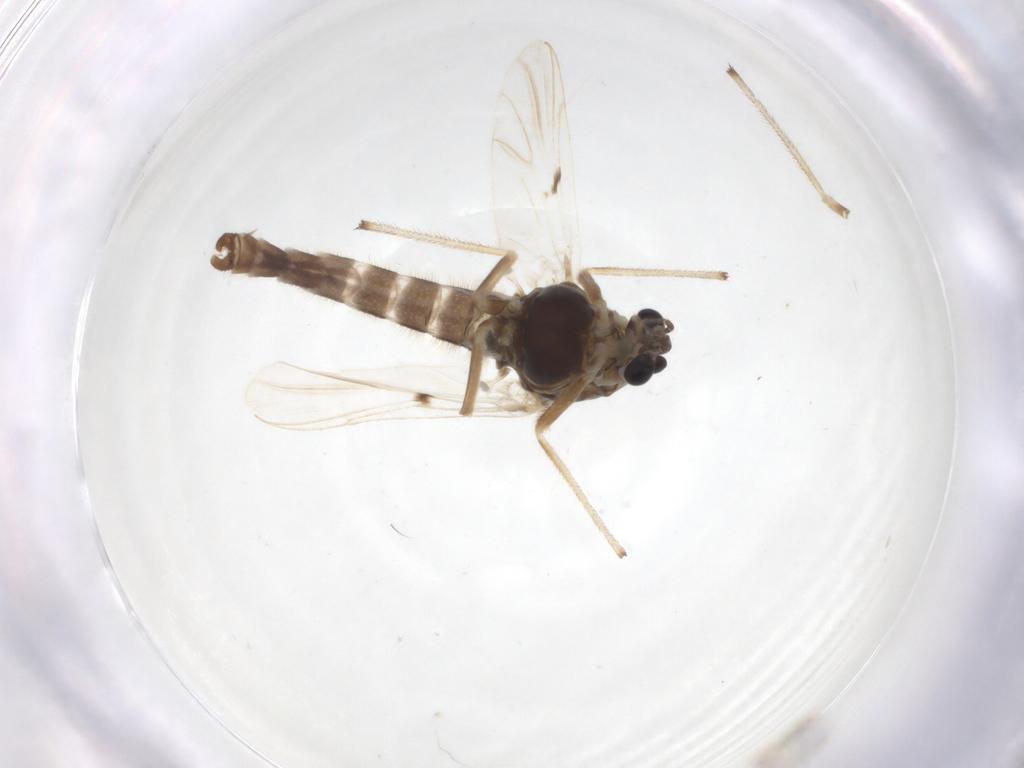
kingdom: Animalia
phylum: Arthropoda
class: Insecta
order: Diptera
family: Chironomidae
